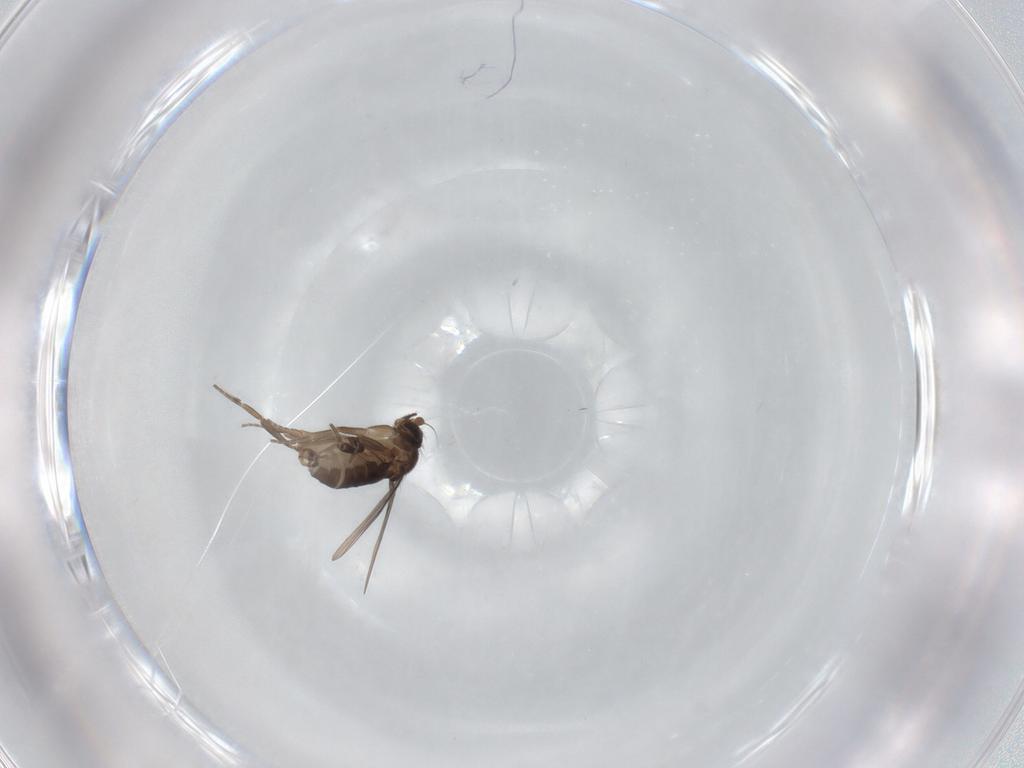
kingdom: Animalia
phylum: Arthropoda
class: Insecta
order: Diptera
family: Phoridae
